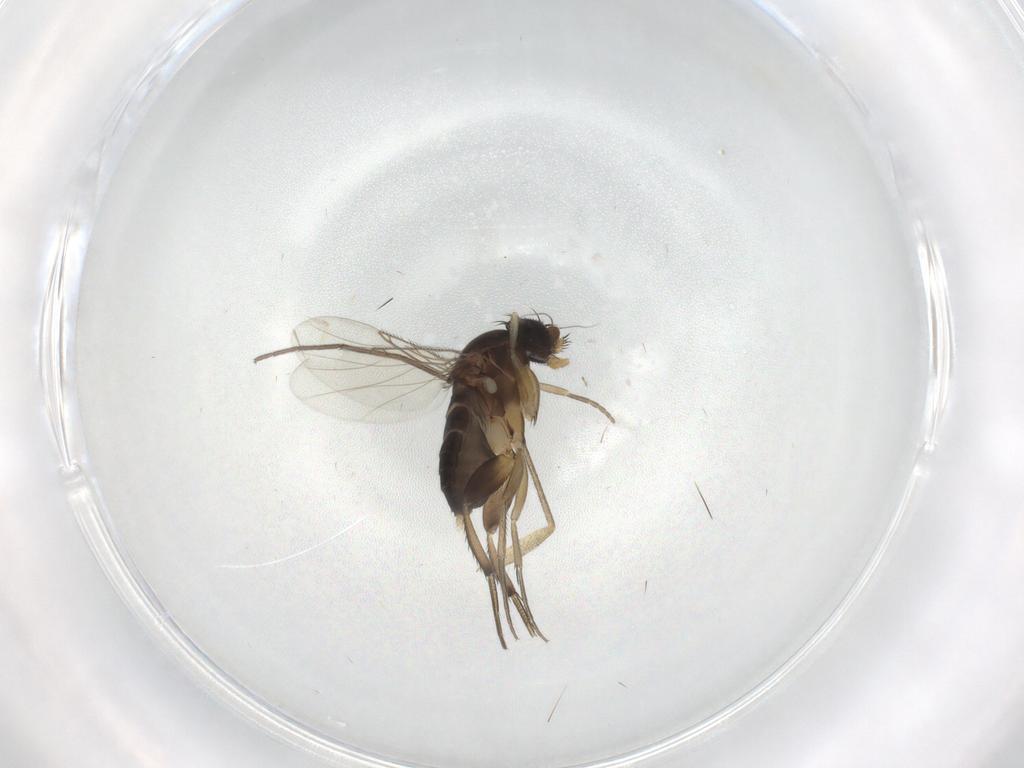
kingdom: Animalia
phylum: Arthropoda
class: Insecta
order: Diptera
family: Phoridae
